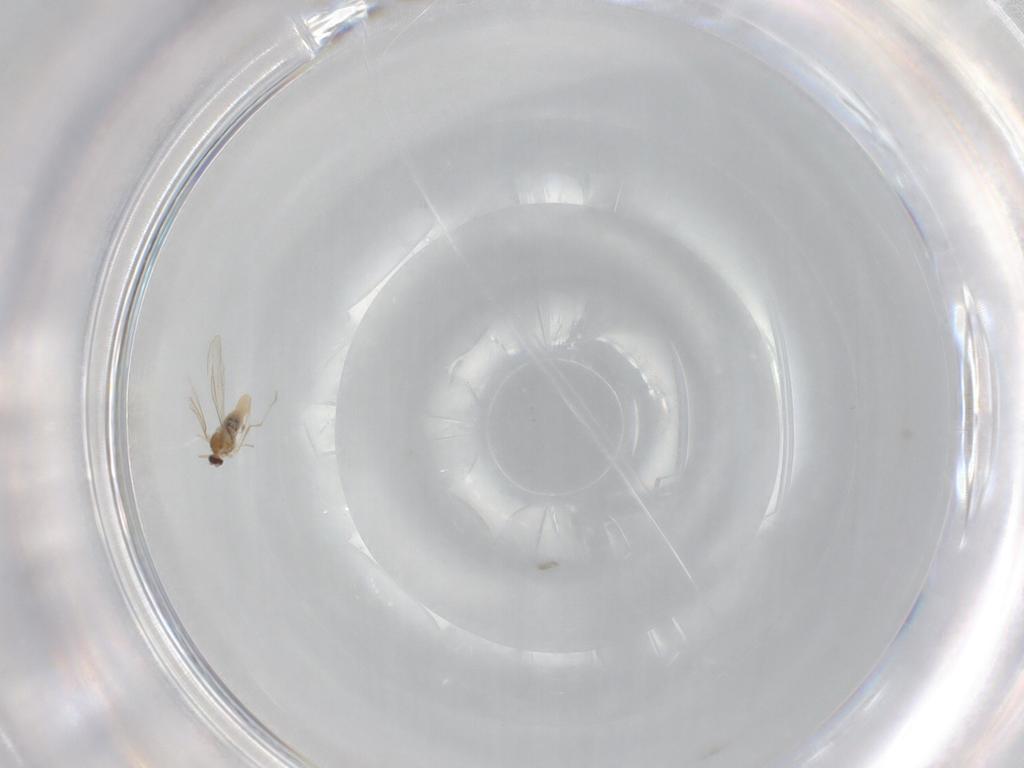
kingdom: Animalia
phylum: Arthropoda
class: Insecta
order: Diptera
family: Cecidomyiidae
